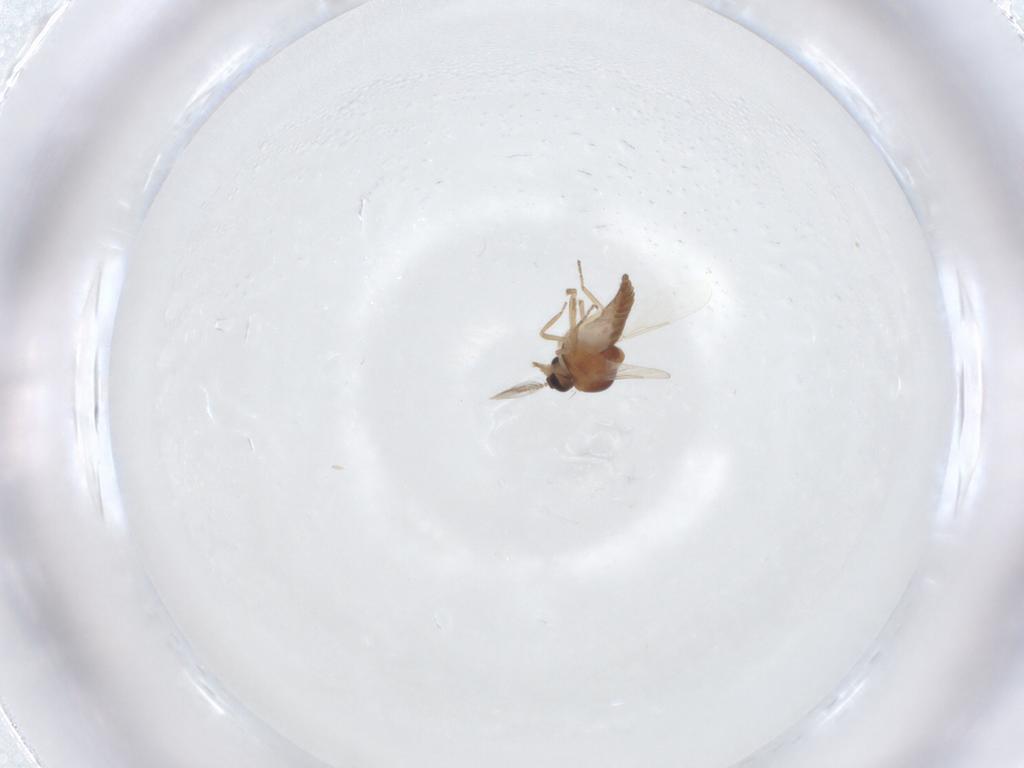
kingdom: Animalia
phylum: Arthropoda
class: Insecta
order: Diptera
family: Ceratopogonidae
